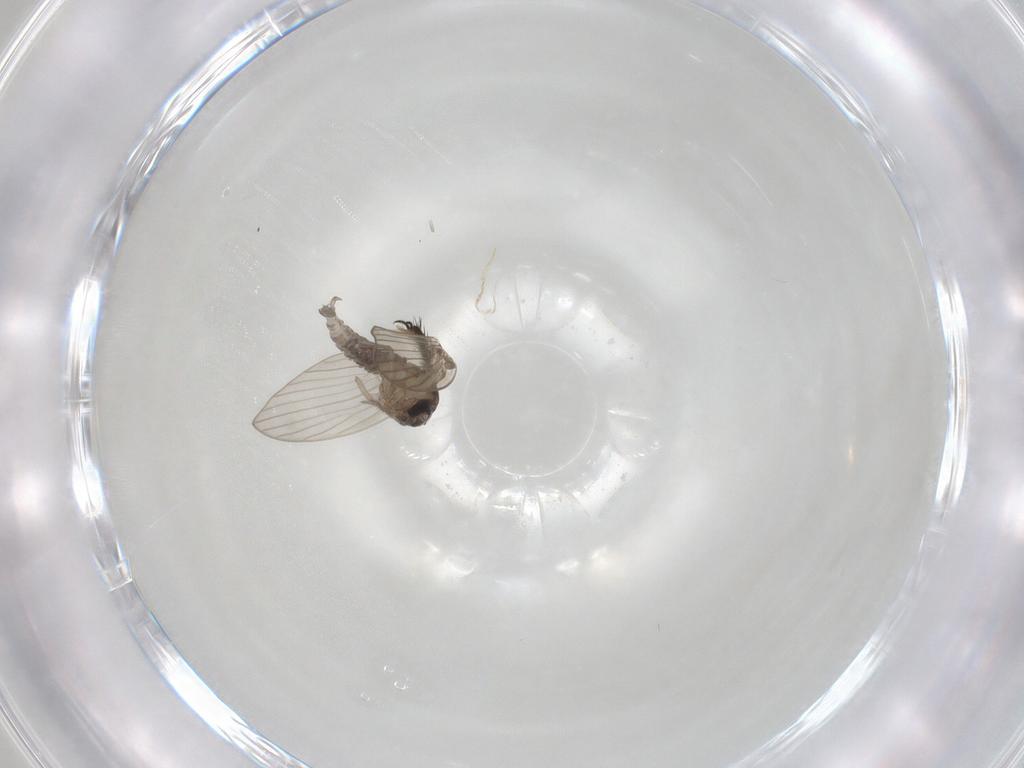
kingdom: Animalia
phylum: Arthropoda
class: Insecta
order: Diptera
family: Psychodidae
